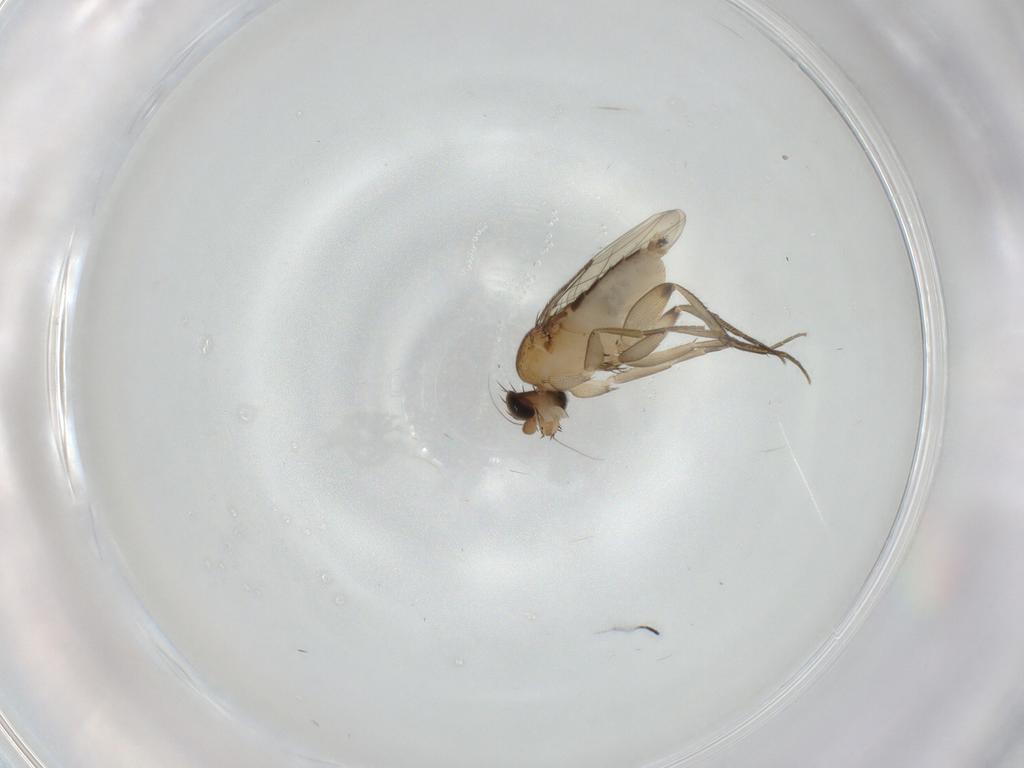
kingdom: Animalia
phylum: Arthropoda
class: Insecta
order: Diptera
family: Phoridae
